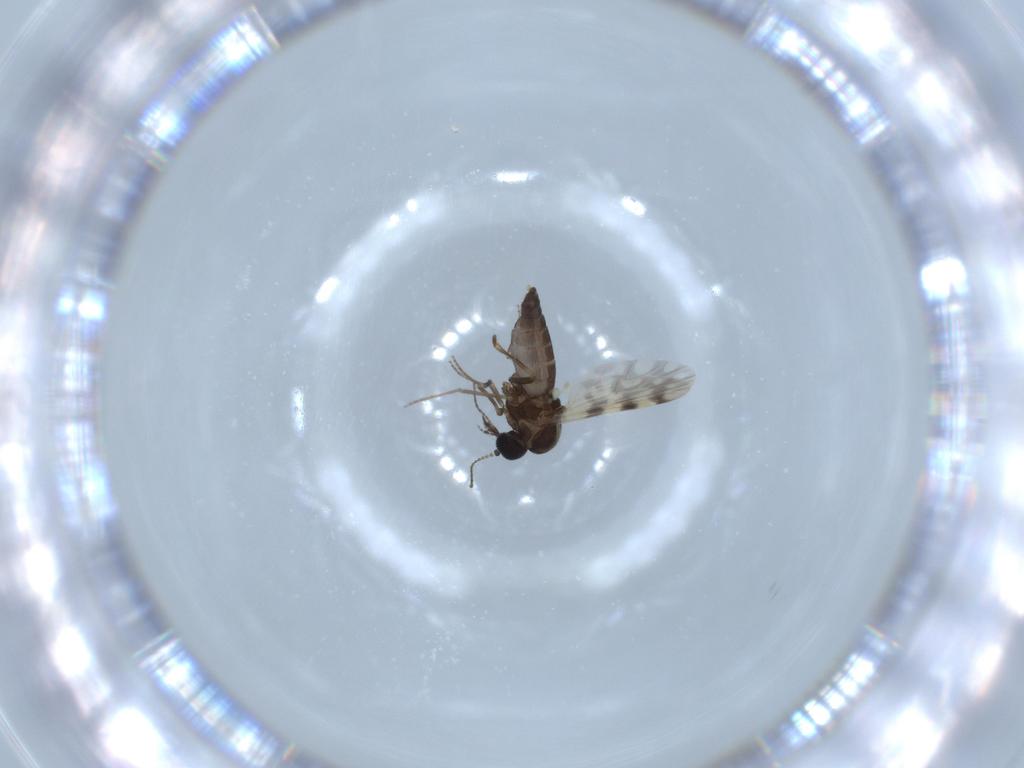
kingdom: Animalia
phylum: Arthropoda
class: Insecta
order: Diptera
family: Ceratopogonidae
